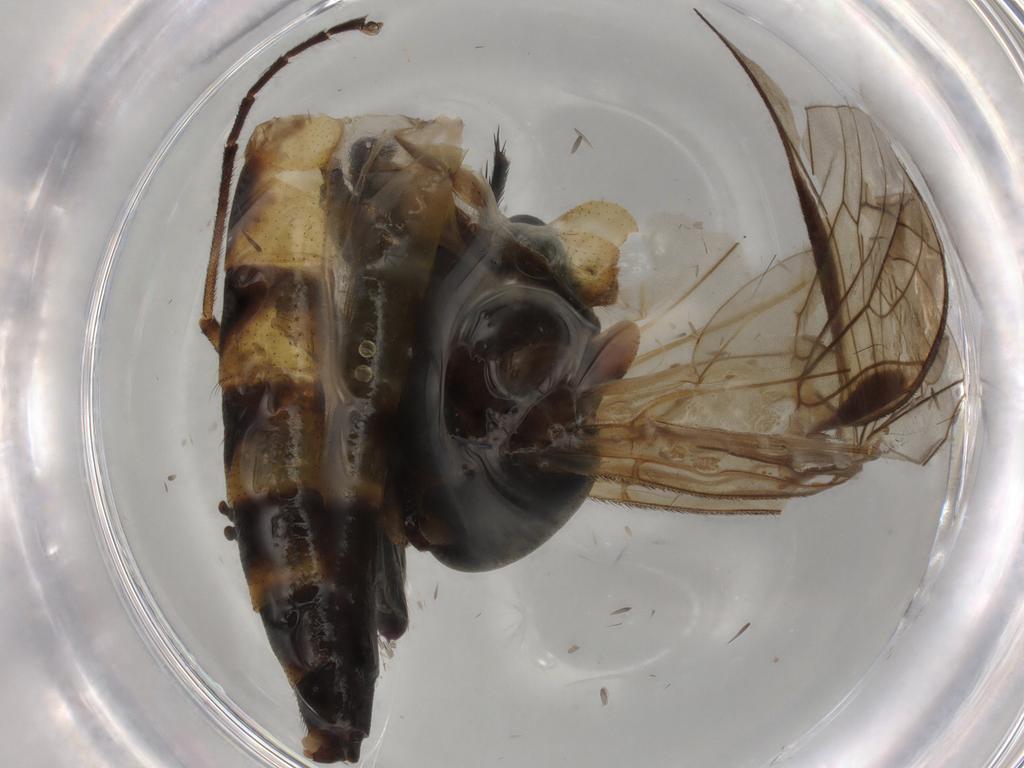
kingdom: Animalia
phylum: Arthropoda
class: Insecta
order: Diptera
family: Rhagionidae
